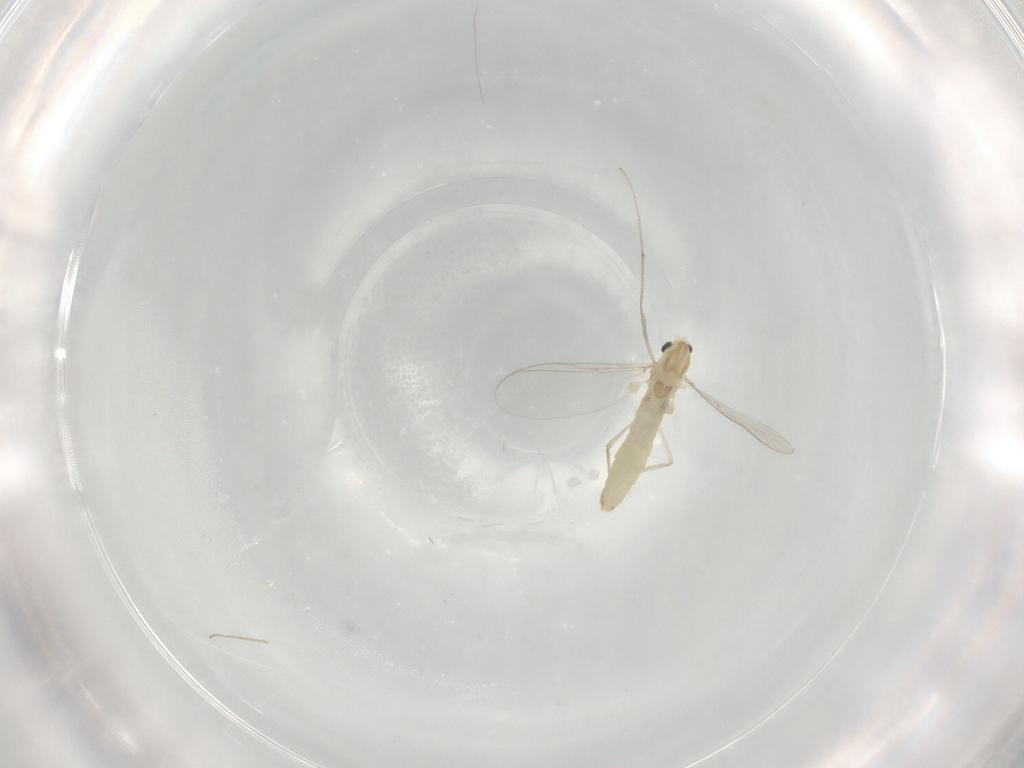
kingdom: Animalia
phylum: Arthropoda
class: Insecta
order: Diptera
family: Chironomidae
